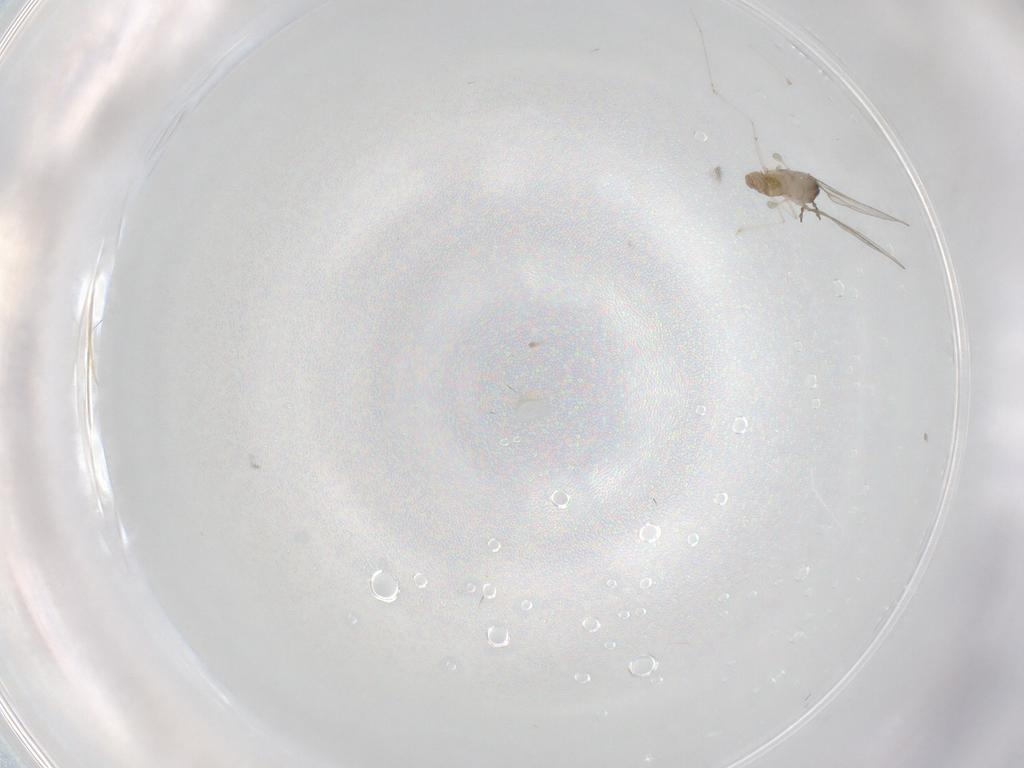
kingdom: Animalia
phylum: Arthropoda
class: Insecta
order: Diptera
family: Cecidomyiidae
